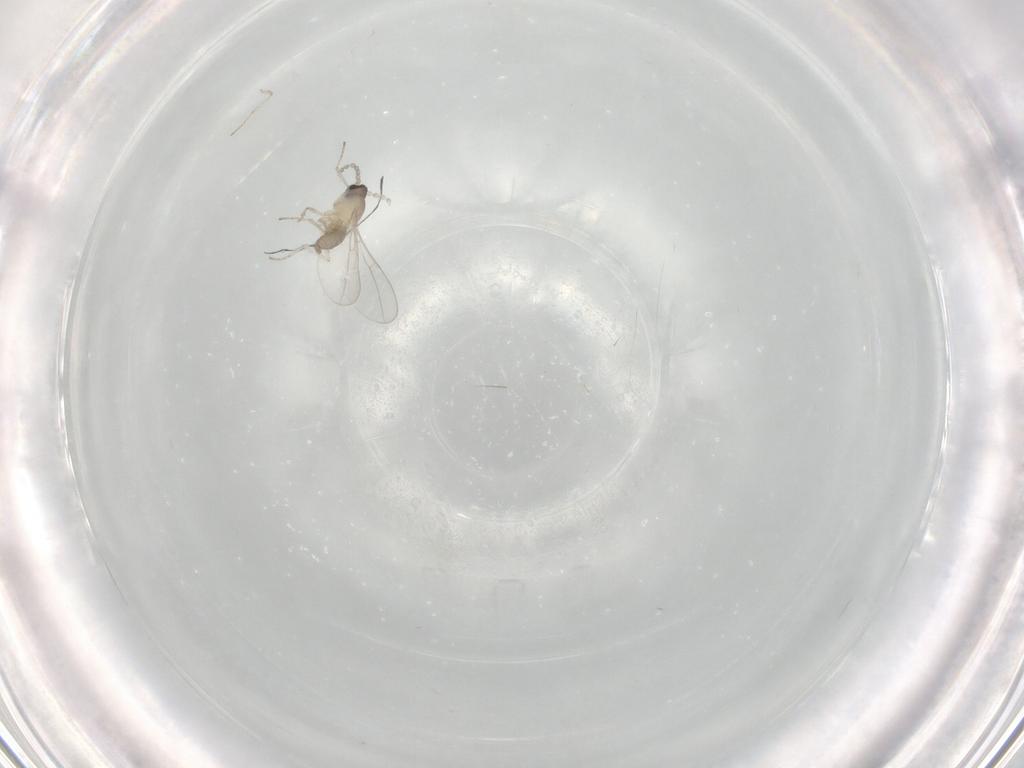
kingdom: Animalia
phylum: Arthropoda
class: Insecta
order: Diptera
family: Cecidomyiidae
